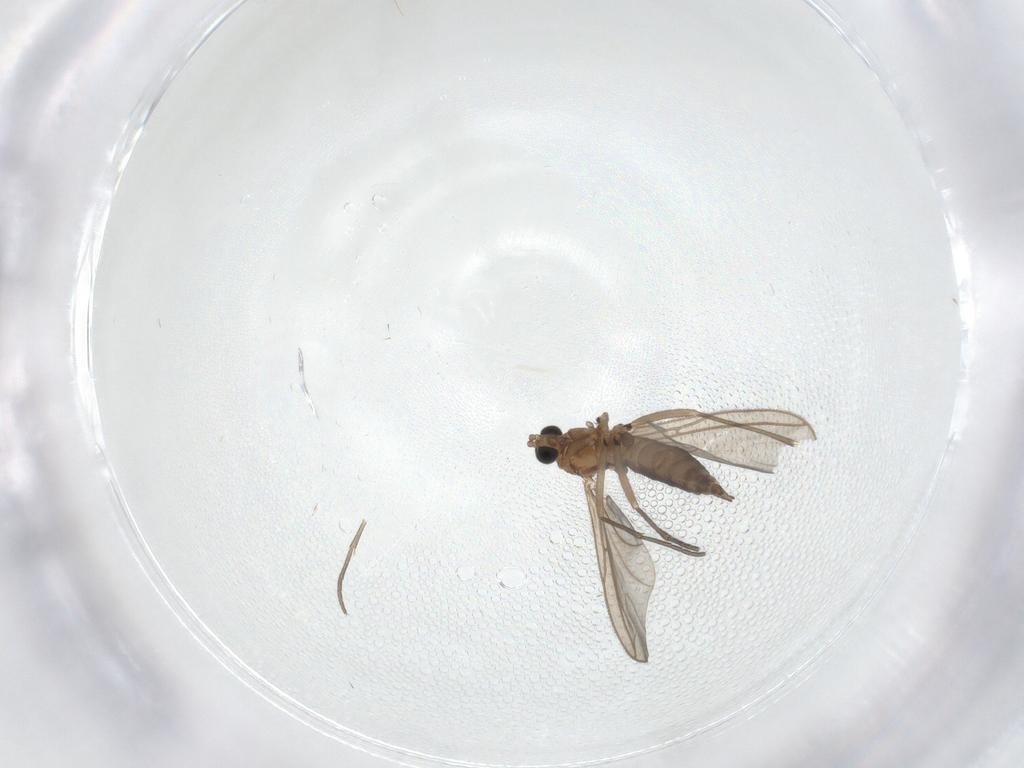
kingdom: Animalia
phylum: Arthropoda
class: Insecta
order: Diptera
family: Sciaridae
